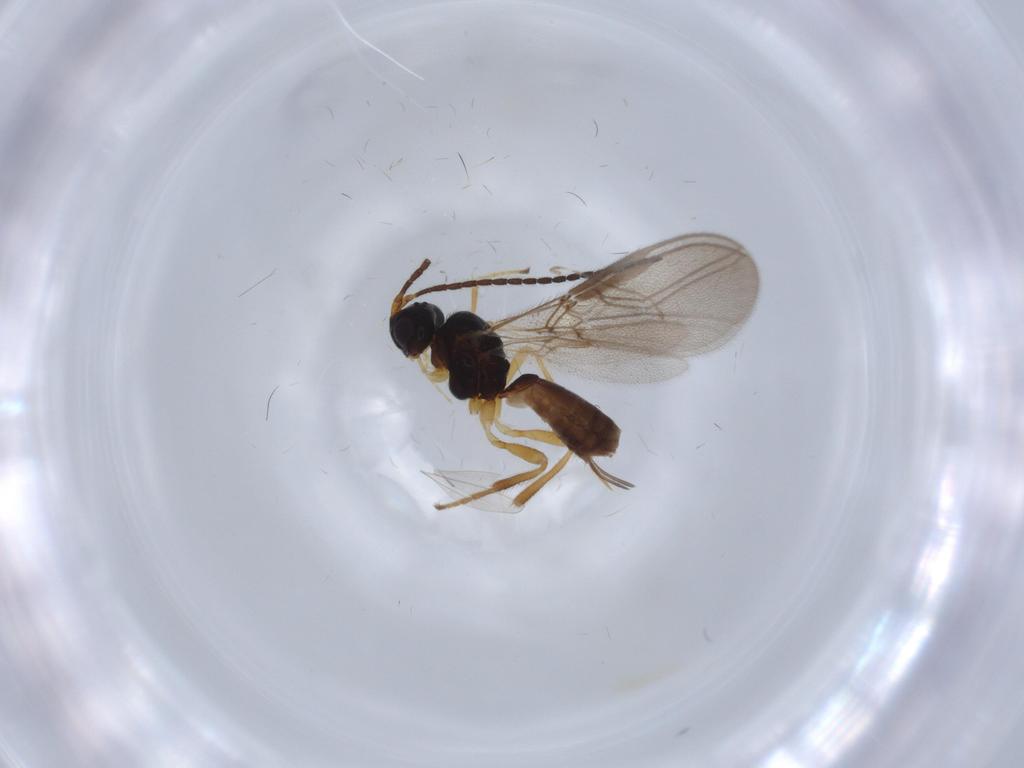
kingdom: Animalia
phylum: Arthropoda
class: Insecta
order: Hymenoptera
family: Braconidae
